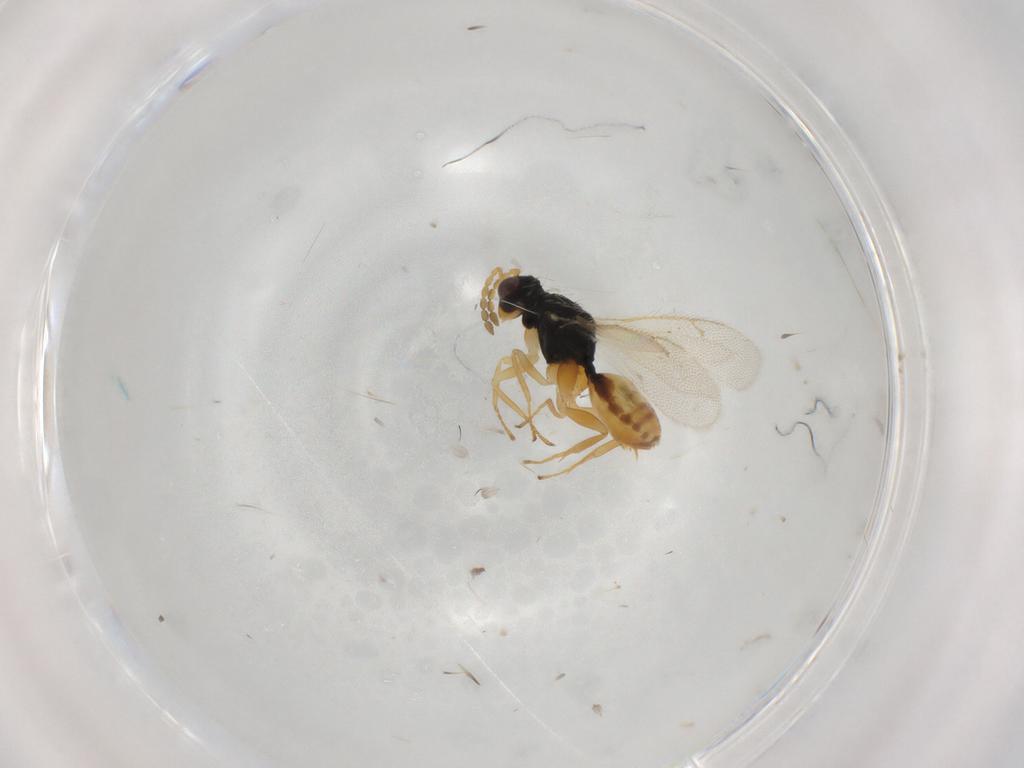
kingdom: Animalia
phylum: Arthropoda
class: Insecta
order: Hymenoptera
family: Eulophidae
